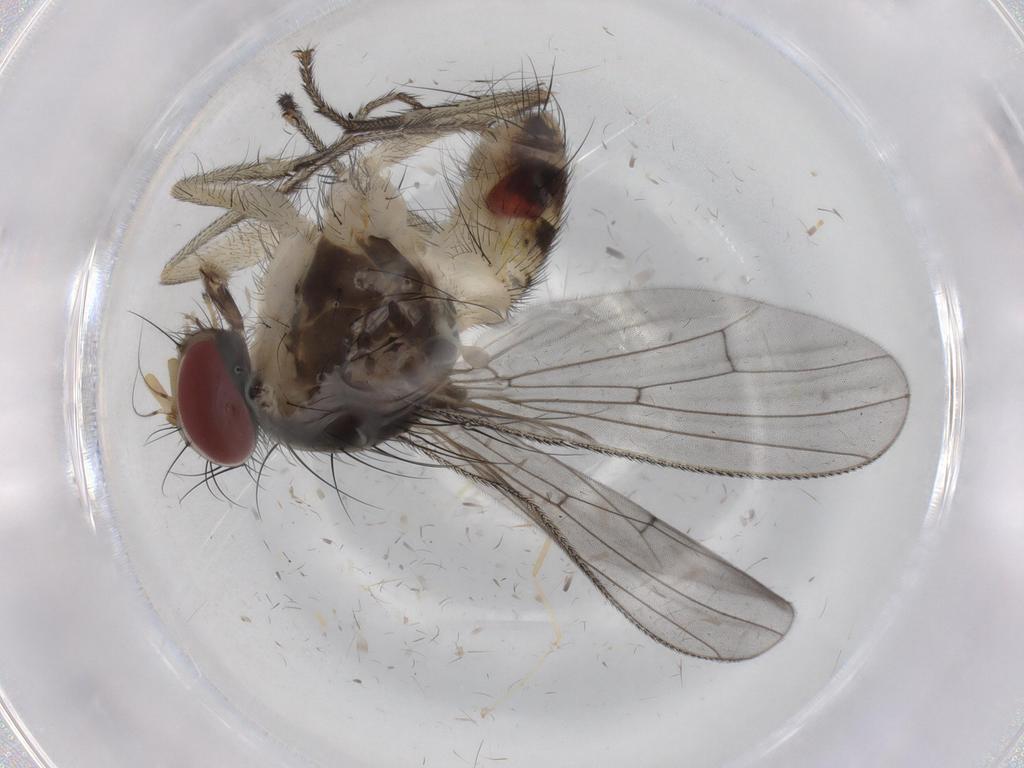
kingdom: Animalia
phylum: Arthropoda
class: Insecta
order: Diptera
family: Muscidae
